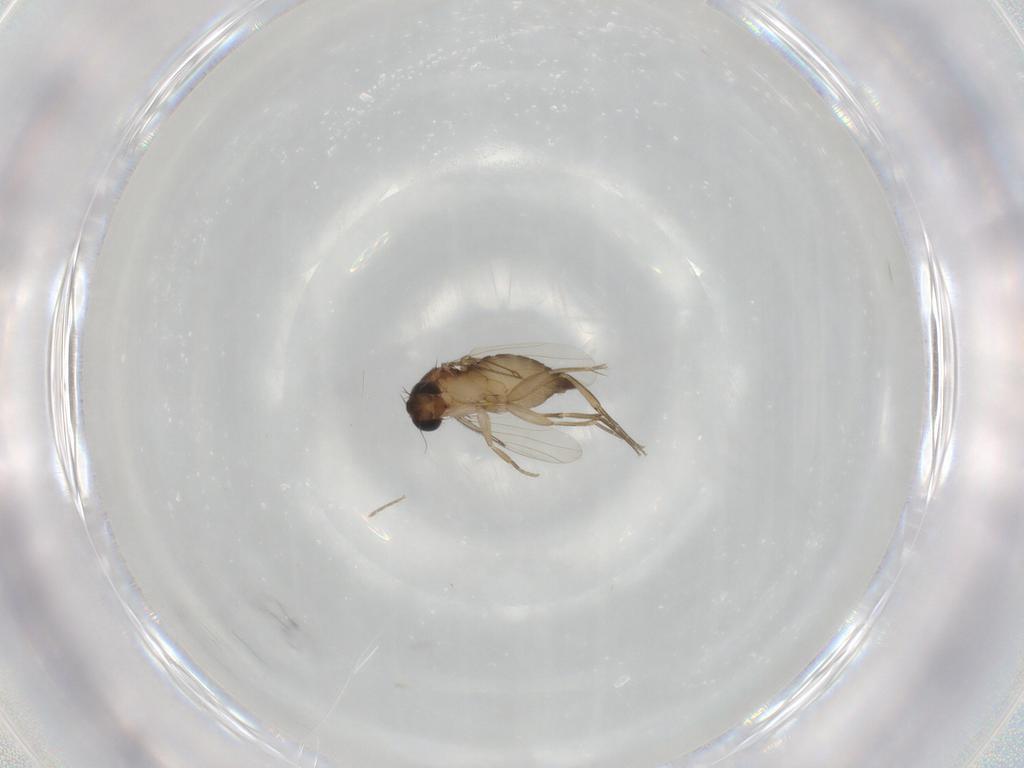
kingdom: Animalia
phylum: Arthropoda
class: Insecta
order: Diptera
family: Phoridae
